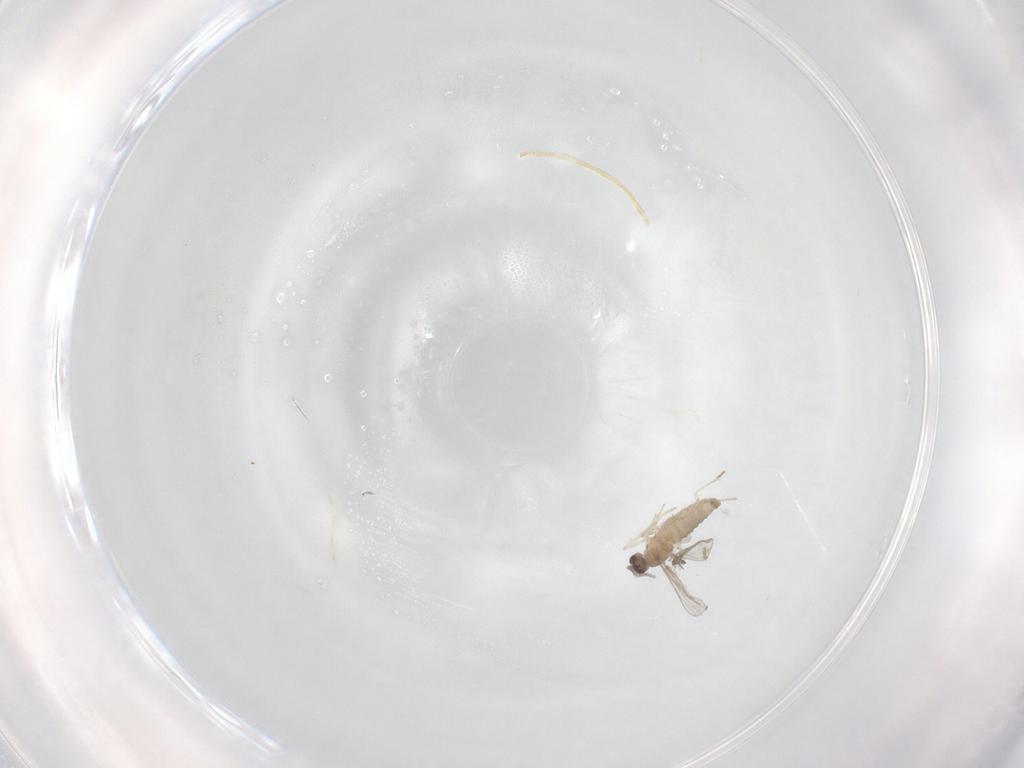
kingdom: Animalia
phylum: Arthropoda
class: Insecta
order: Diptera
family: Cecidomyiidae
